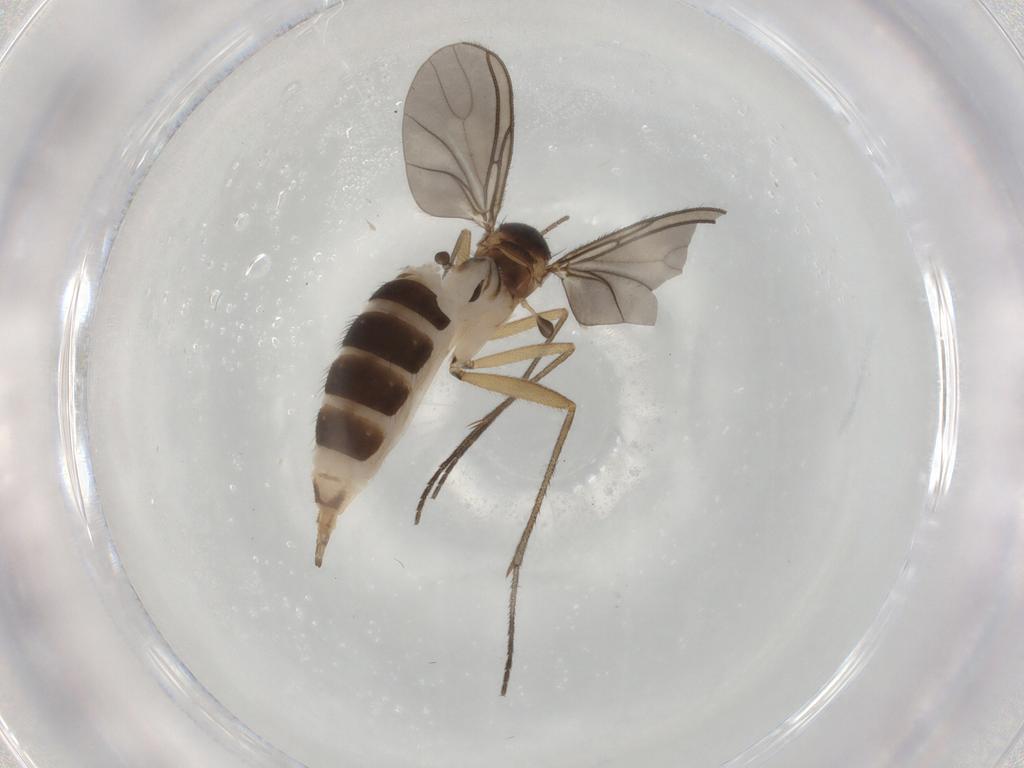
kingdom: Animalia
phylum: Arthropoda
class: Insecta
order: Diptera
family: Sciaridae
